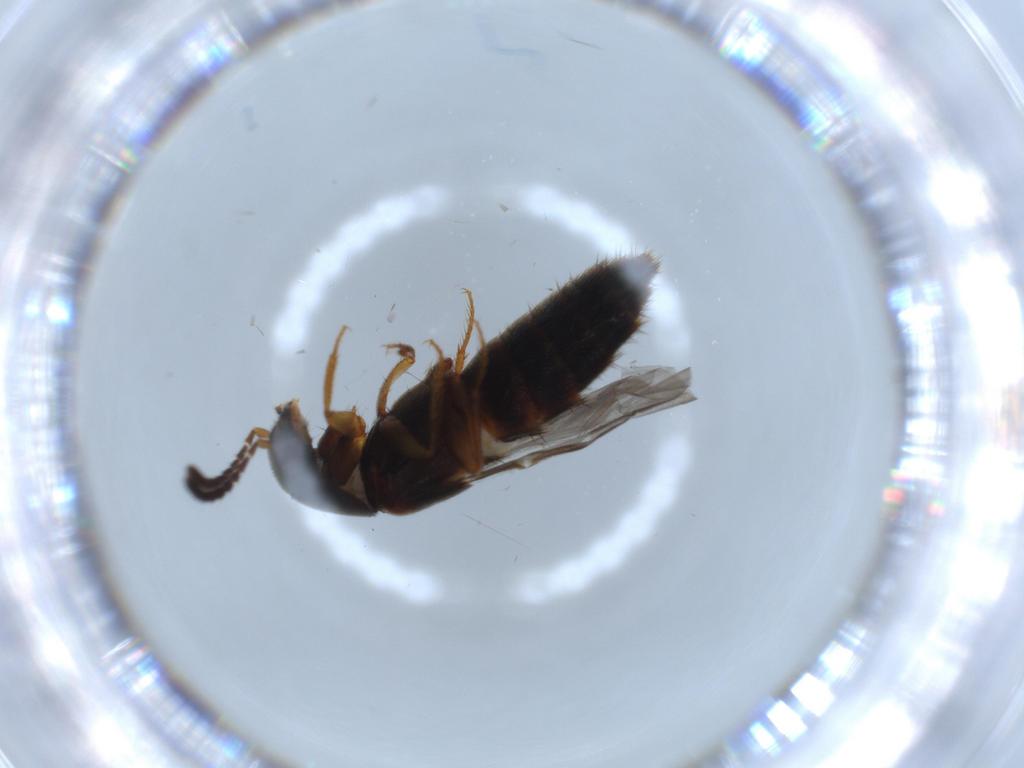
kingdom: Animalia
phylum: Arthropoda
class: Insecta
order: Coleoptera
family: Staphylinidae
